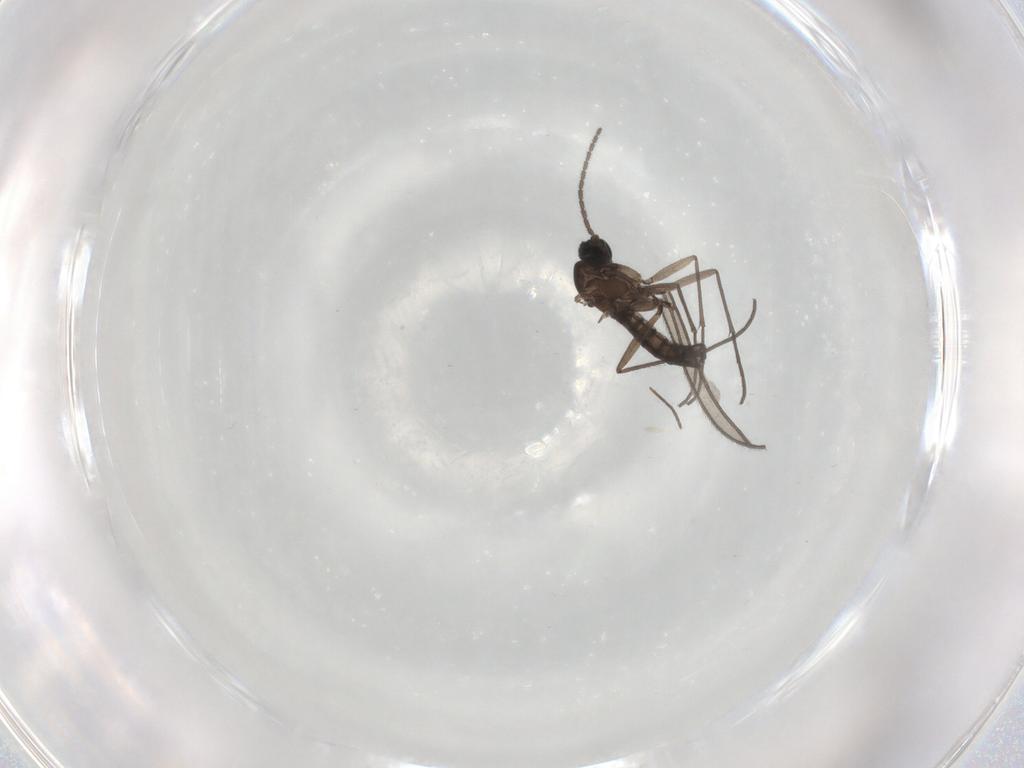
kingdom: Animalia
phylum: Arthropoda
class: Insecta
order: Diptera
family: Sciaridae
